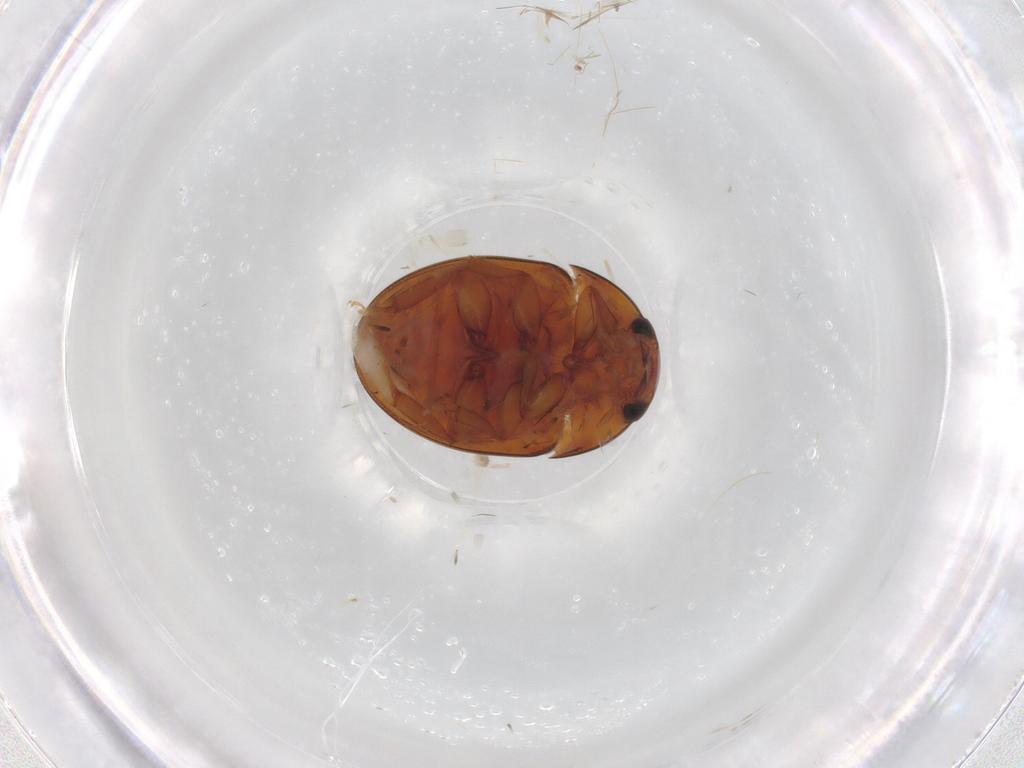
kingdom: Animalia
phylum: Arthropoda
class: Insecta
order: Coleoptera
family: Phalacridae
